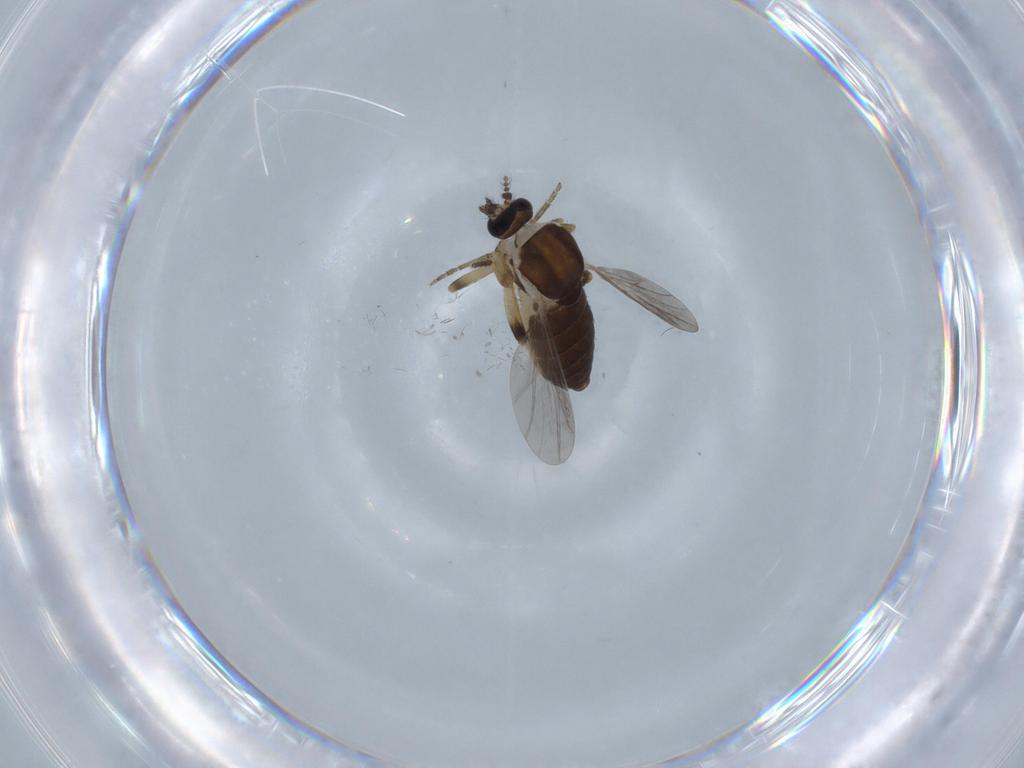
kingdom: Animalia
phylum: Arthropoda
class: Insecta
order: Diptera
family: Ceratopogonidae
